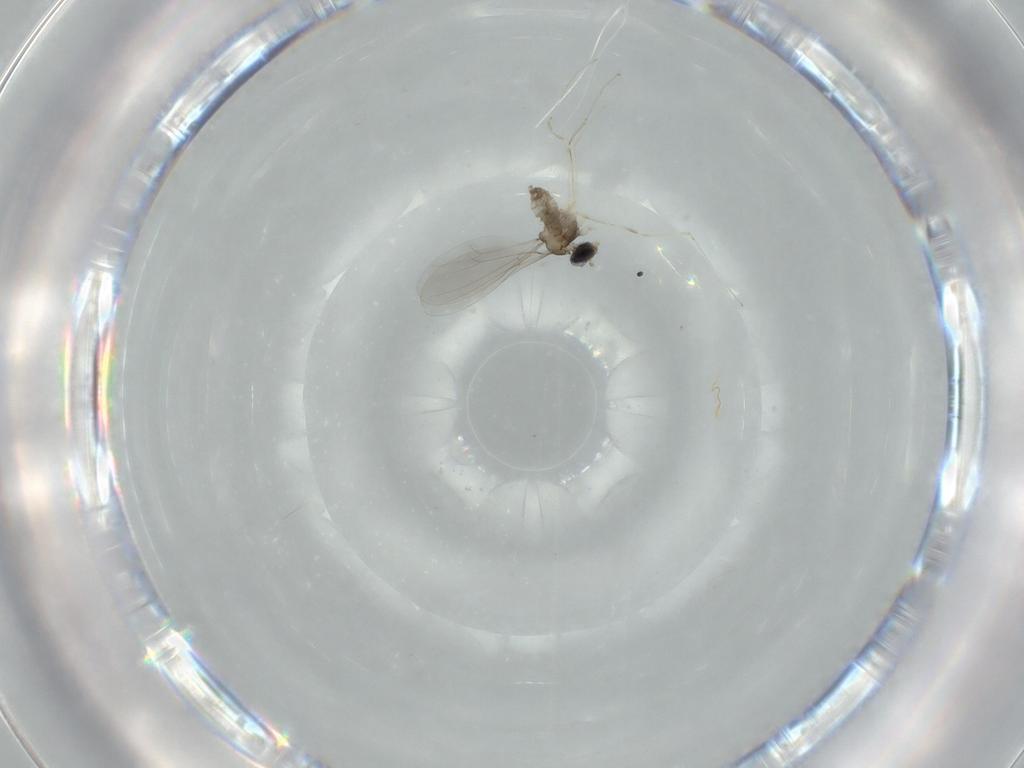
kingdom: Animalia
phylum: Arthropoda
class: Insecta
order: Diptera
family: Cecidomyiidae
